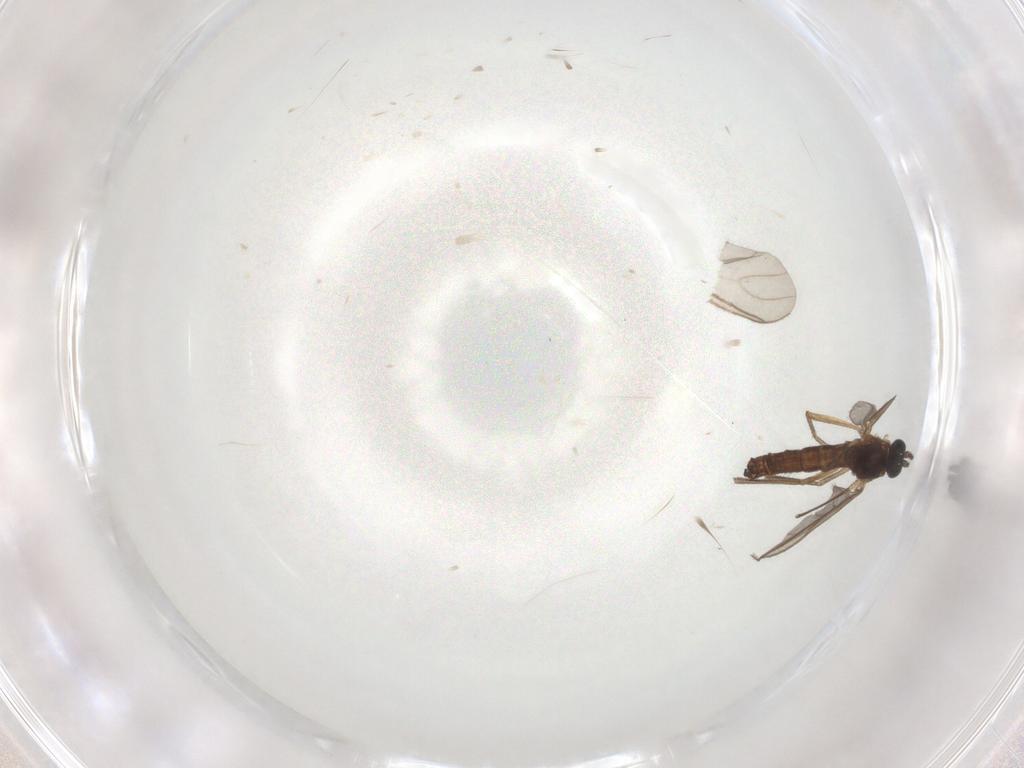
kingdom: Animalia
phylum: Arthropoda
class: Insecta
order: Diptera
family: Sciaridae
